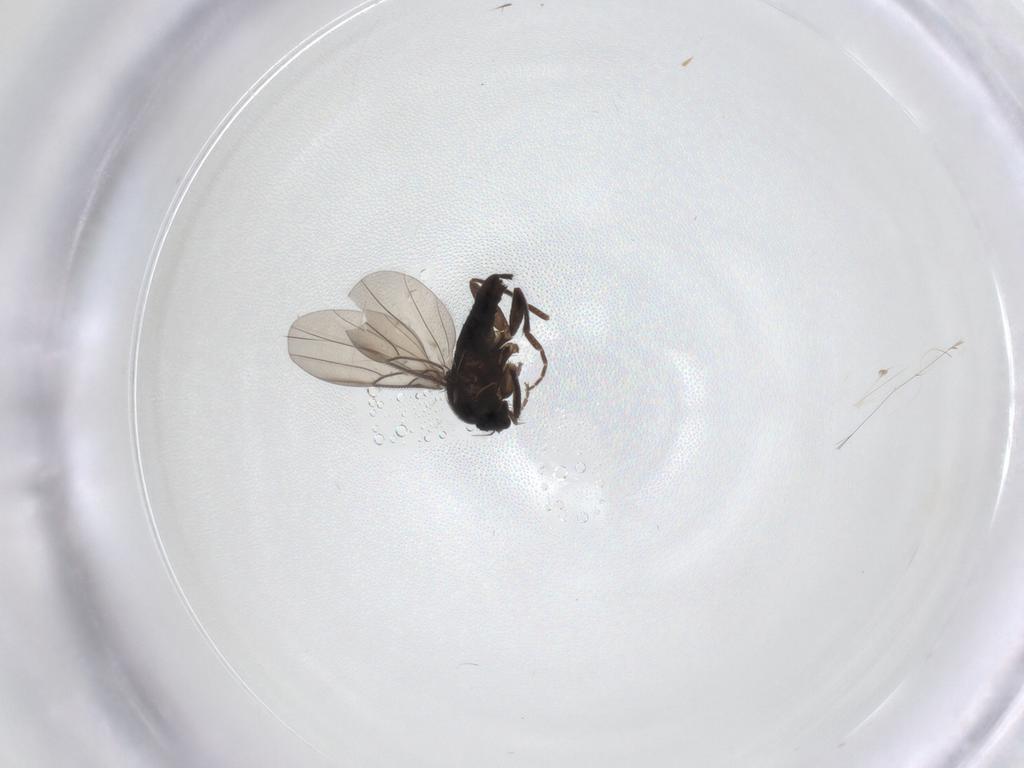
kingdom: Animalia
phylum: Arthropoda
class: Insecta
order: Diptera
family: Phoridae
